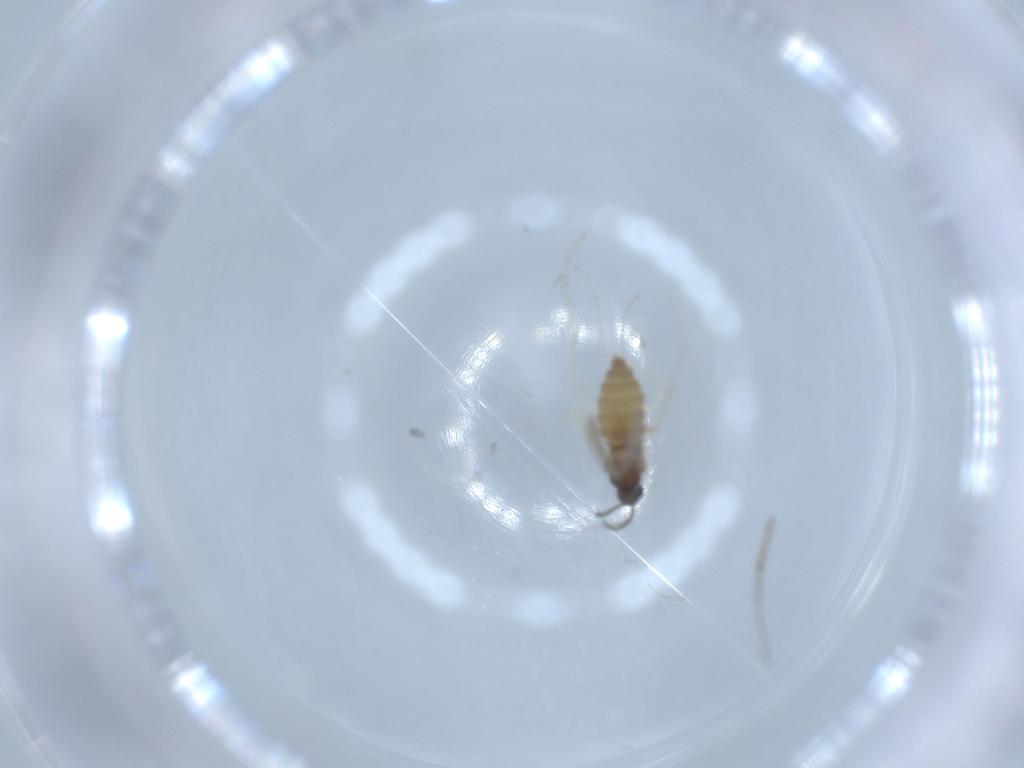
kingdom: Animalia
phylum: Arthropoda
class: Insecta
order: Diptera
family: Cecidomyiidae
